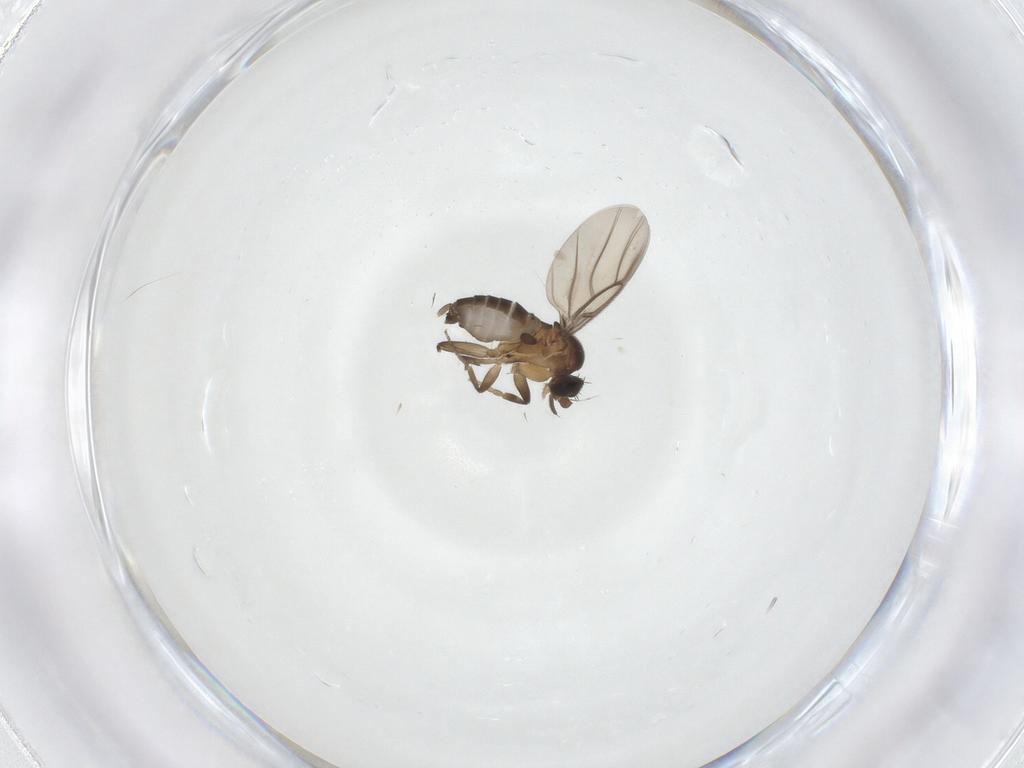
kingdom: Animalia
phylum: Arthropoda
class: Insecta
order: Diptera
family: Phoridae
